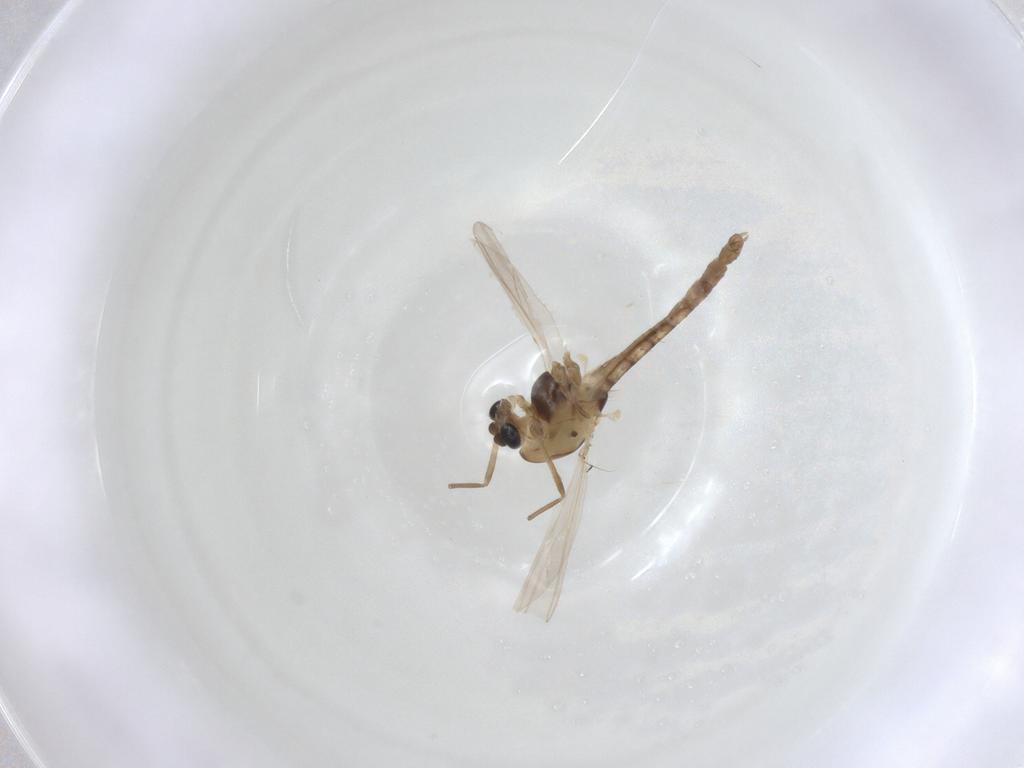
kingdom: Animalia
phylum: Arthropoda
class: Insecta
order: Diptera
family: Chironomidae
